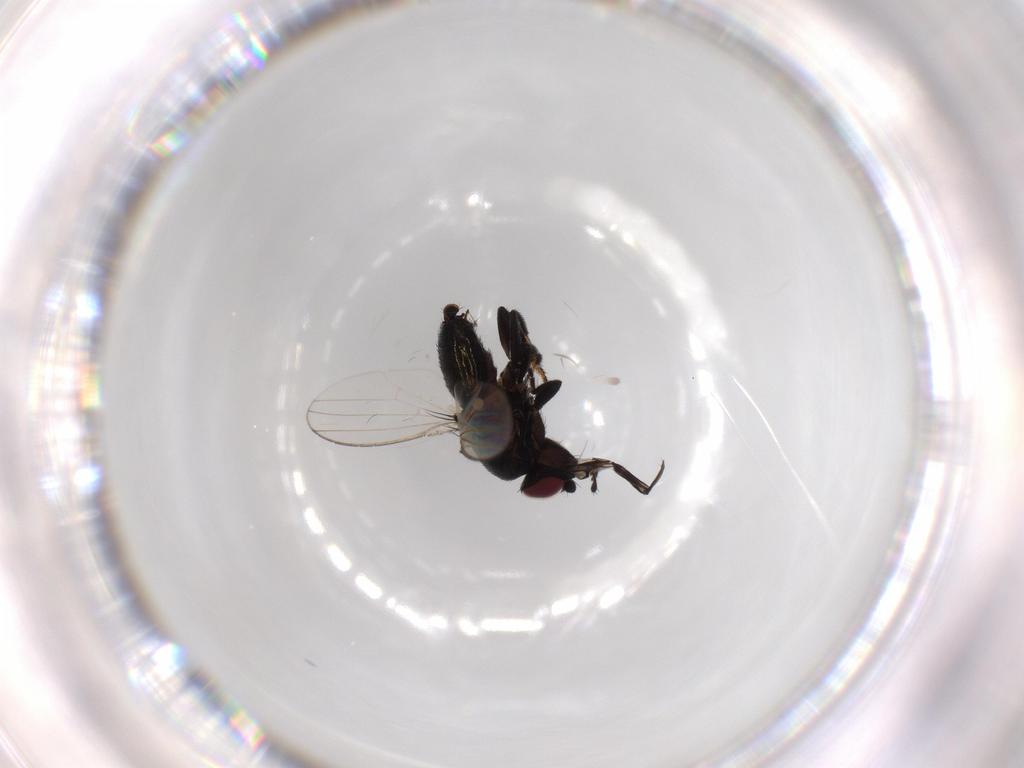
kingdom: Animalia
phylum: Arthropoda
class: Insecta
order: Diptera
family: Milichiidae
